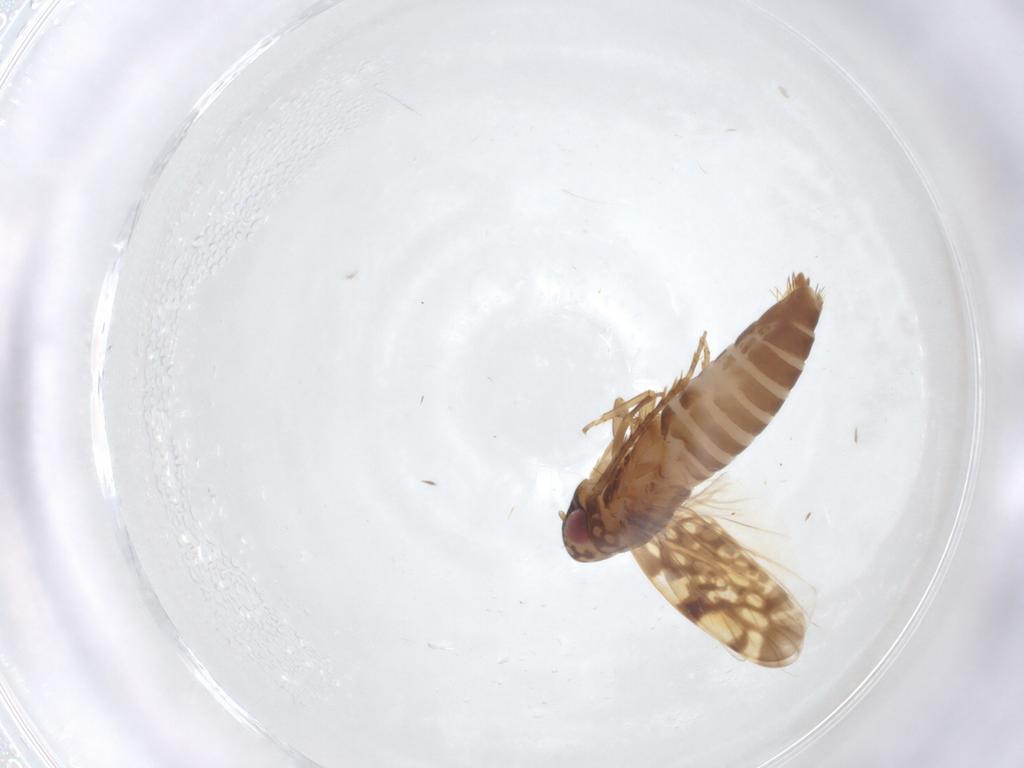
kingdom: Animalia
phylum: Arthropoda
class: Insecta
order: Hemiptera
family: Cicadellidae
